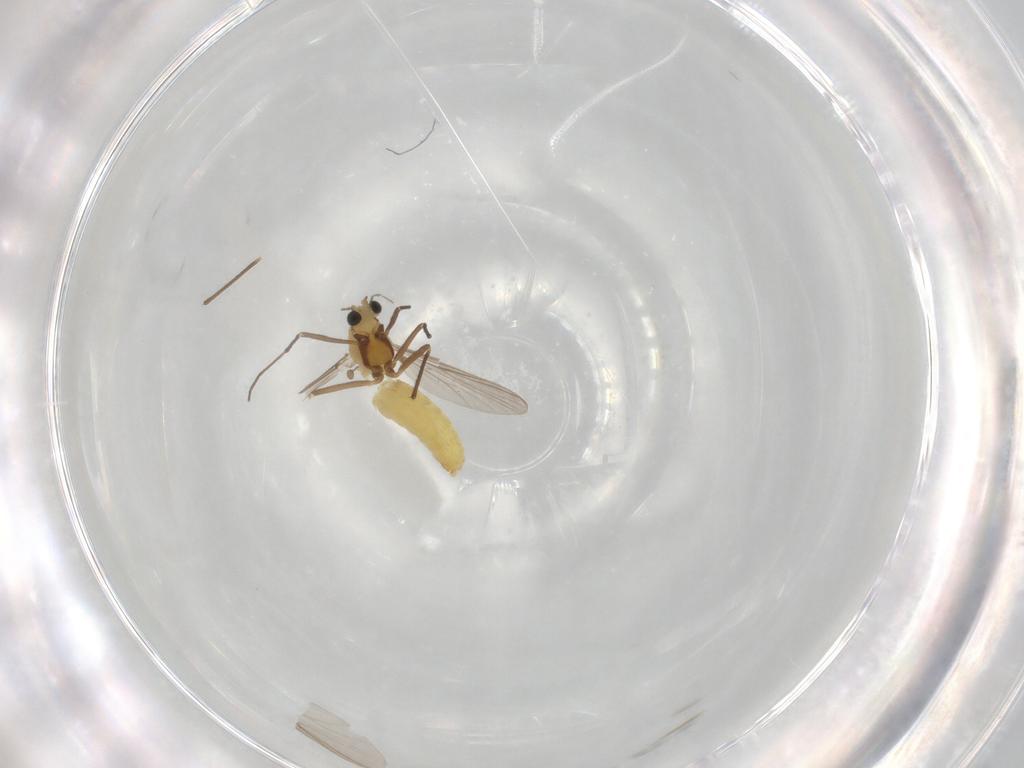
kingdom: Animalia
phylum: Arthropoda
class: Insecta
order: Diptera
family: Chironomidae
